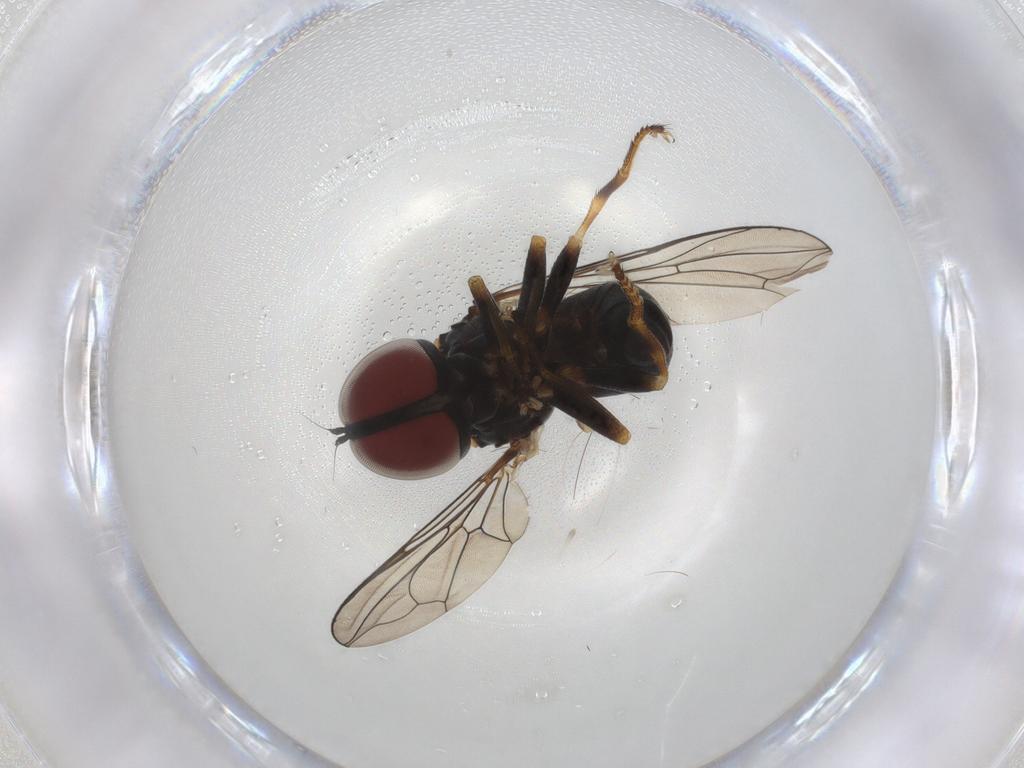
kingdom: Animalia
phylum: Arthropoda
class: Insecta
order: Diptera
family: Pipunculidae
